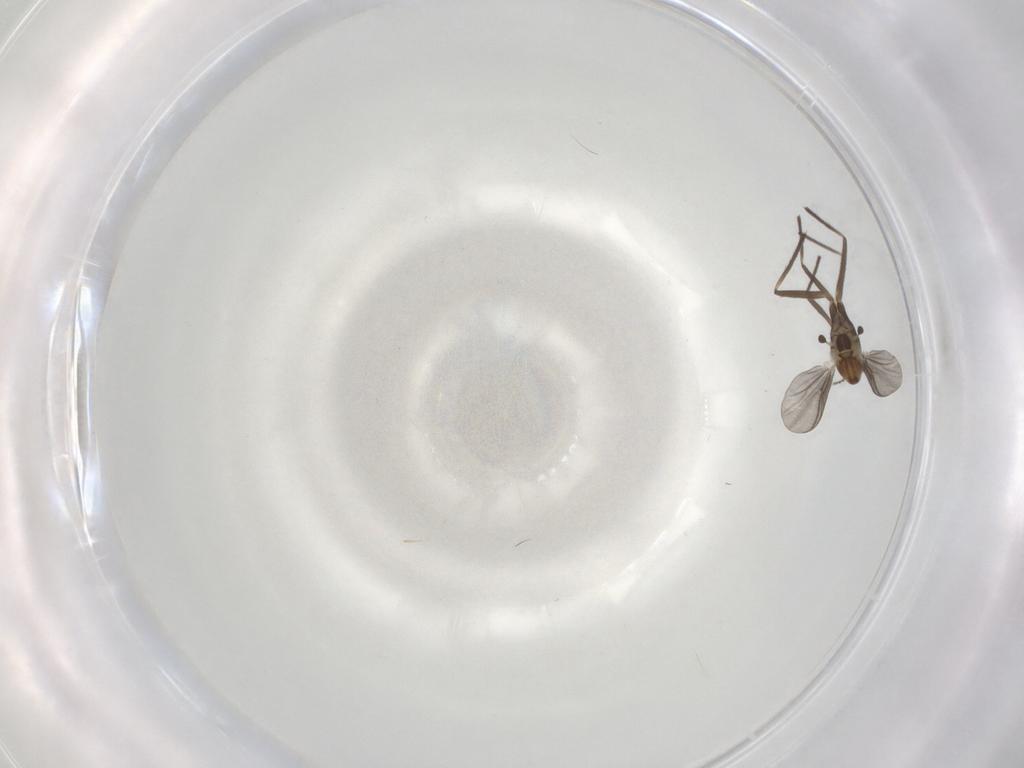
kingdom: Animalia
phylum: Arthropoda
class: Insecta
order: Diptera
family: Chironomidae
